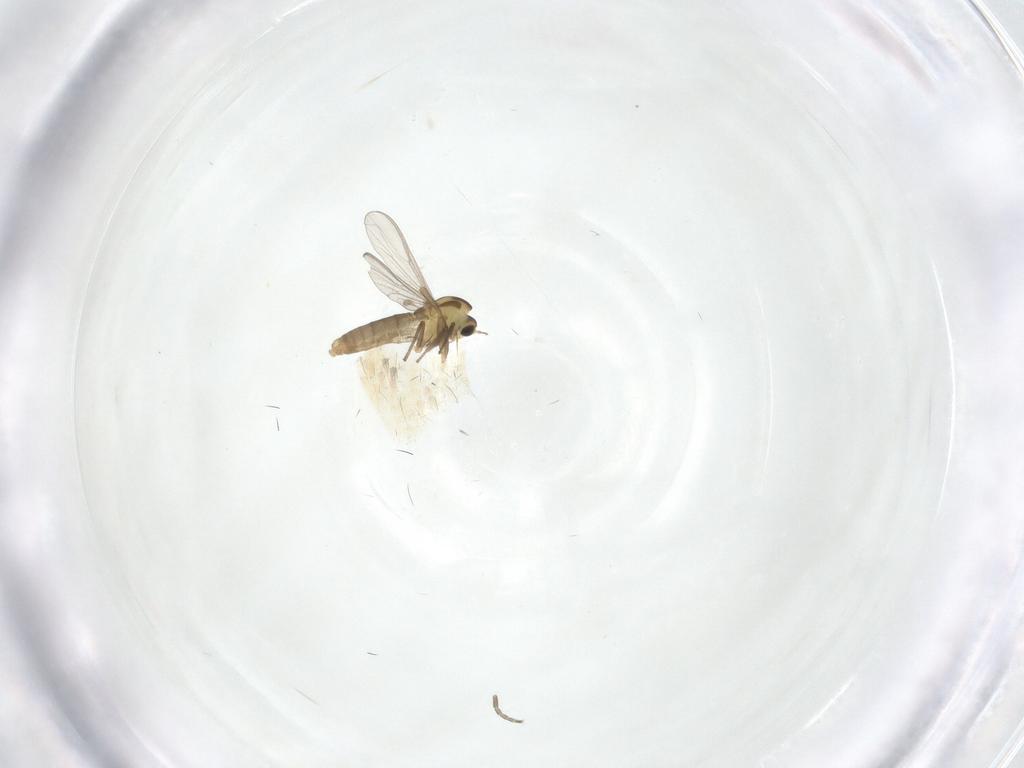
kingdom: Animalia
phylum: Arthropoda
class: Insecta
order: Diptera
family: Chironomidae
